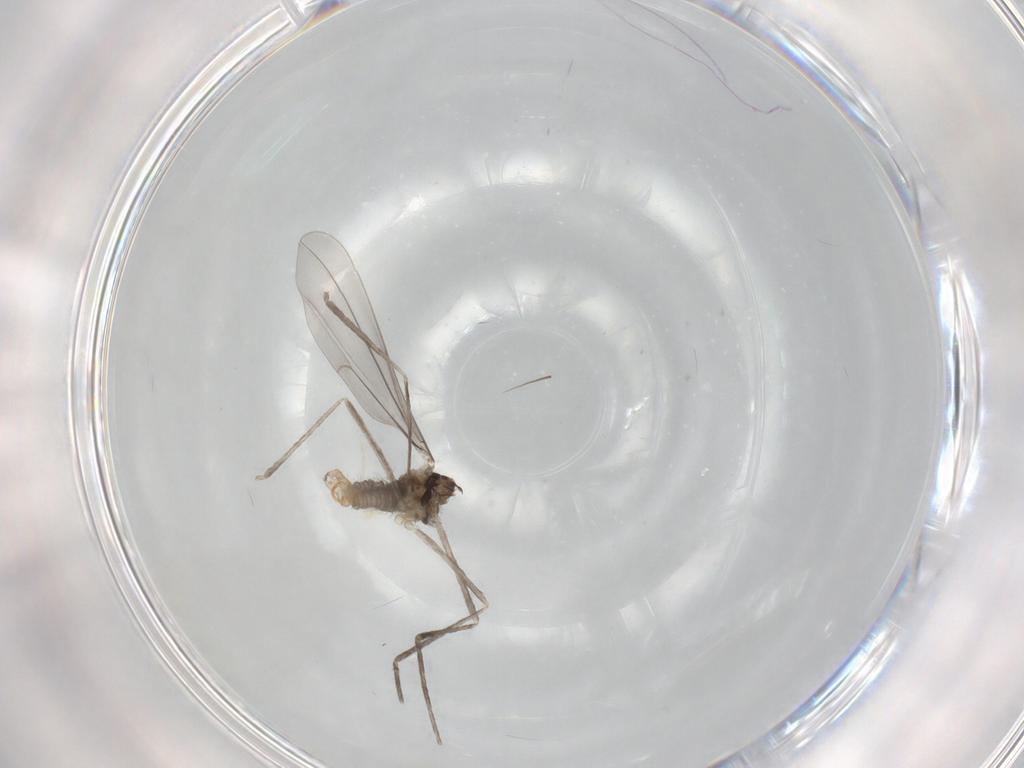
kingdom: Animalia
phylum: Arthropoda
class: Insecta
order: Diptera
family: Cecidomyiidae
